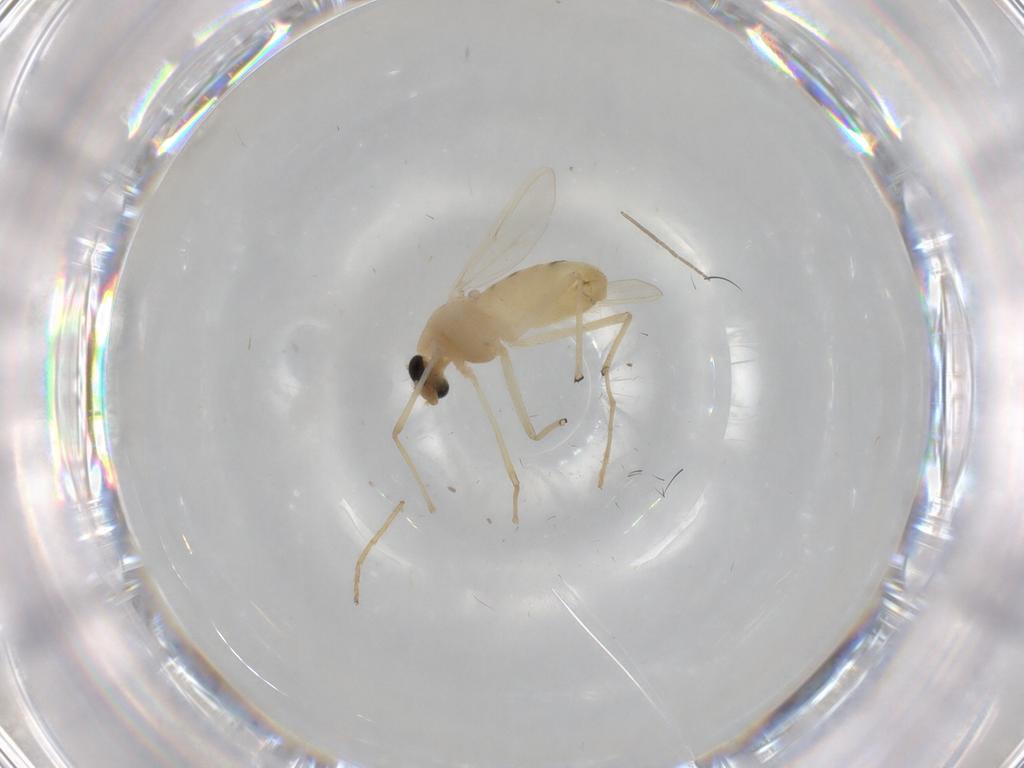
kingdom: Animalia
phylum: Arthropoda
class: Insecta
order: Diptera
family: Chironomidae
